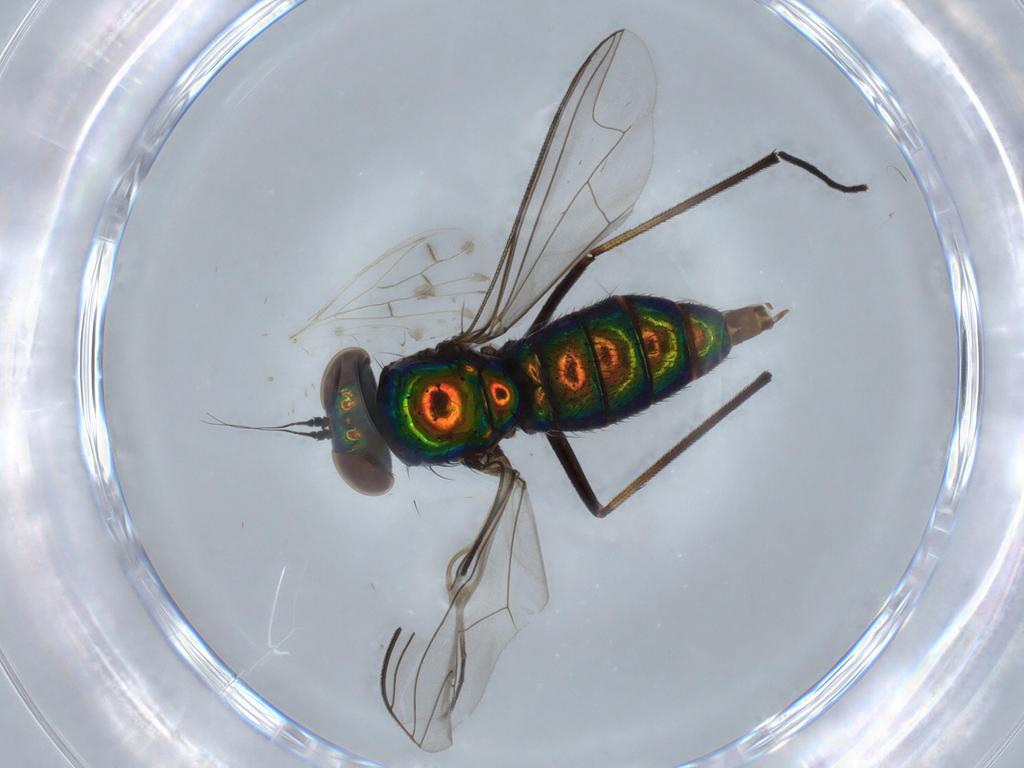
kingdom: Animalia
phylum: Arthropoda
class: Insecta
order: Diptera
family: Dolichopodidae
